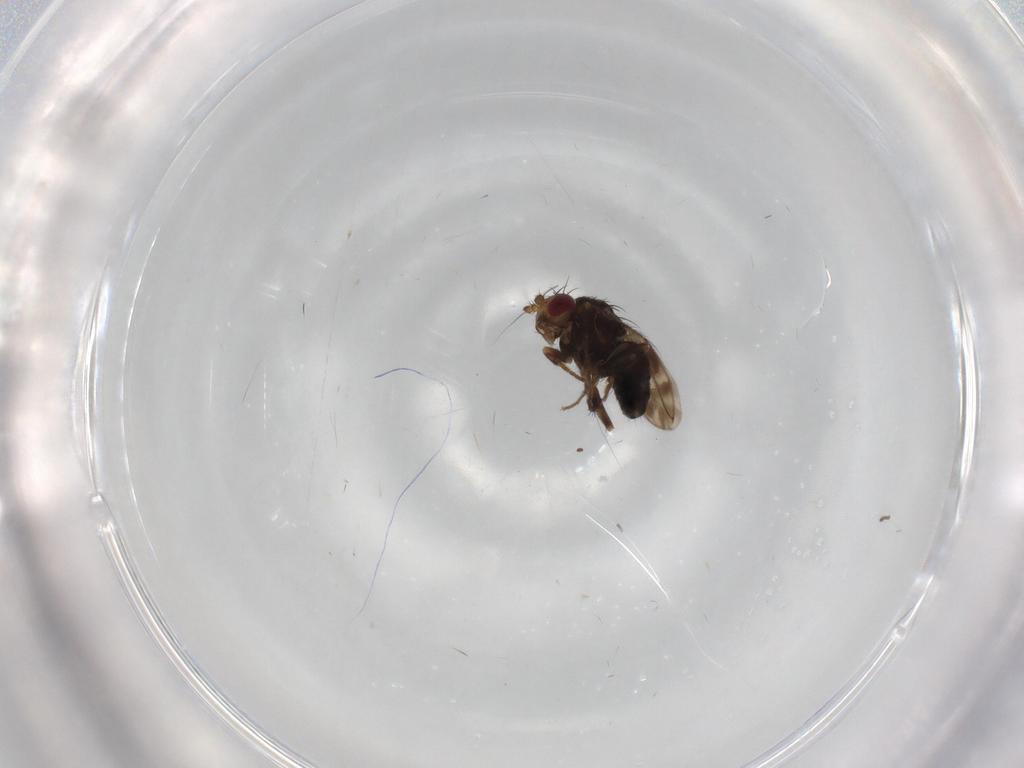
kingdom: Animalia
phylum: Arthropoda
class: Insecta
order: Diptera
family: Sphaeroceridae
